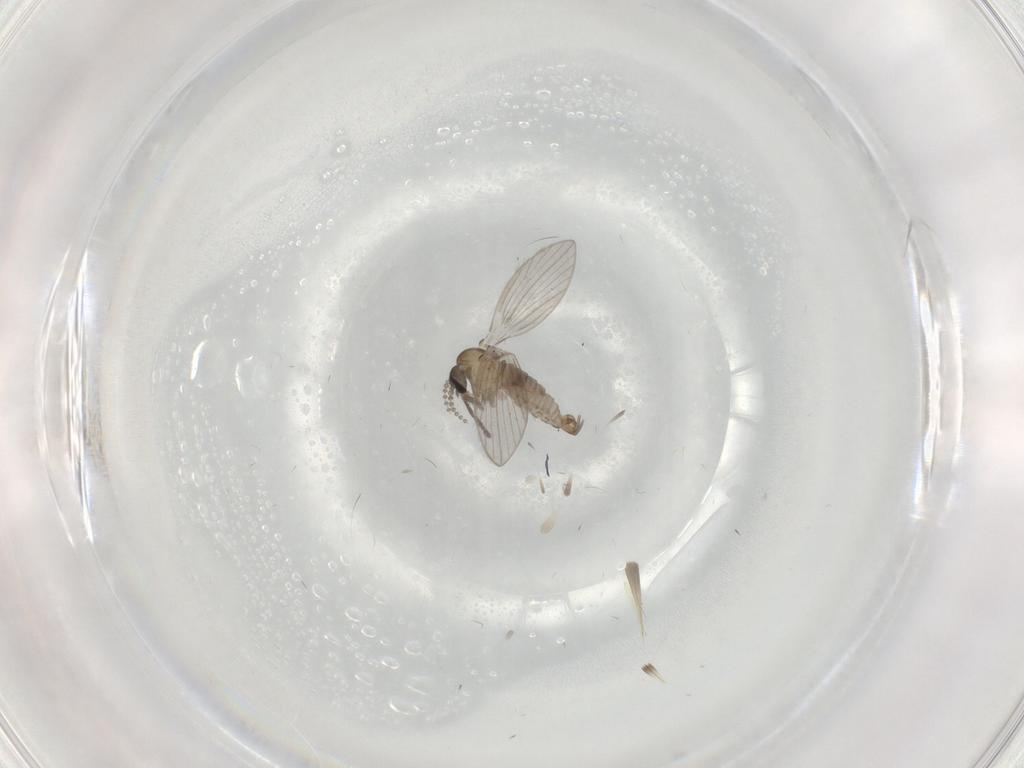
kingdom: Animalia
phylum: Arthropoda
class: Insecta
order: Diptera
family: Psychodidae
